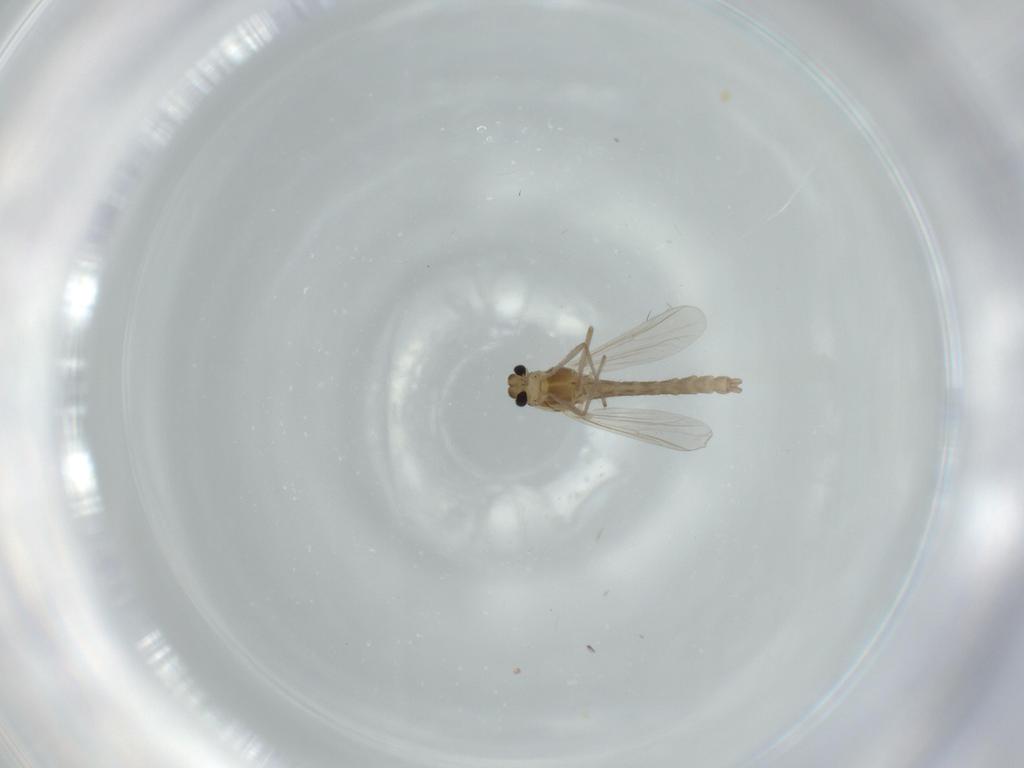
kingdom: Animalia
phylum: Arthropoda
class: Insecta
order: Diptera
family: Chironomidae
